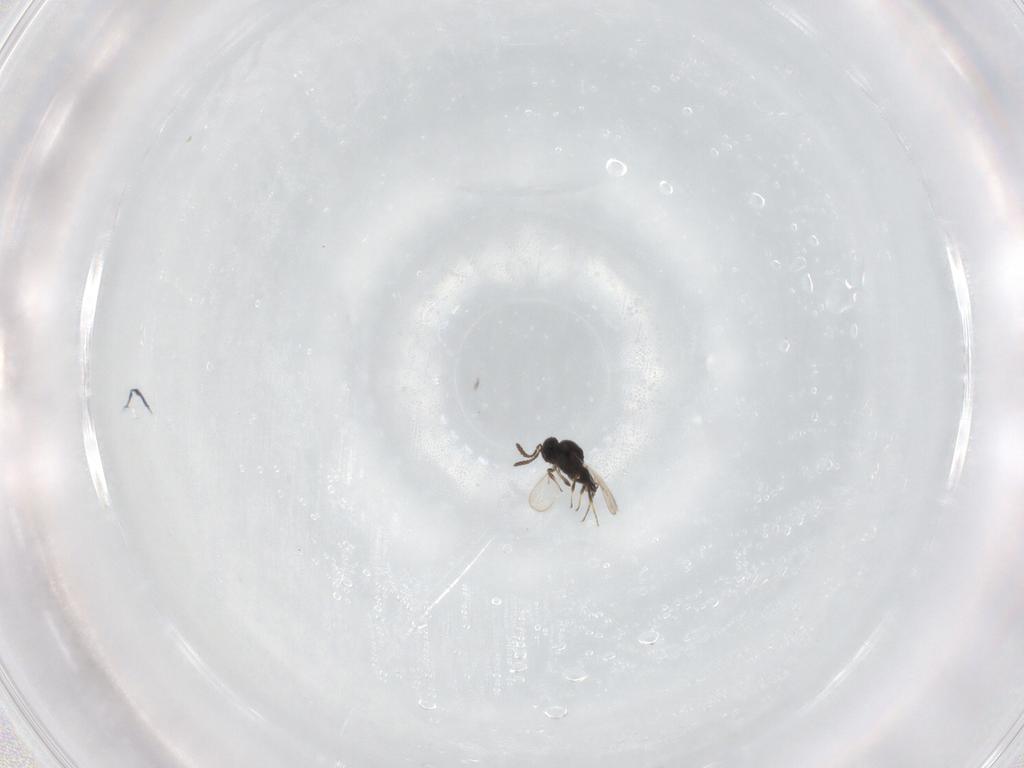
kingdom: Animalia
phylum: Arthropoda
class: Insecta
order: Hymenoptera
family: Scelionidae
